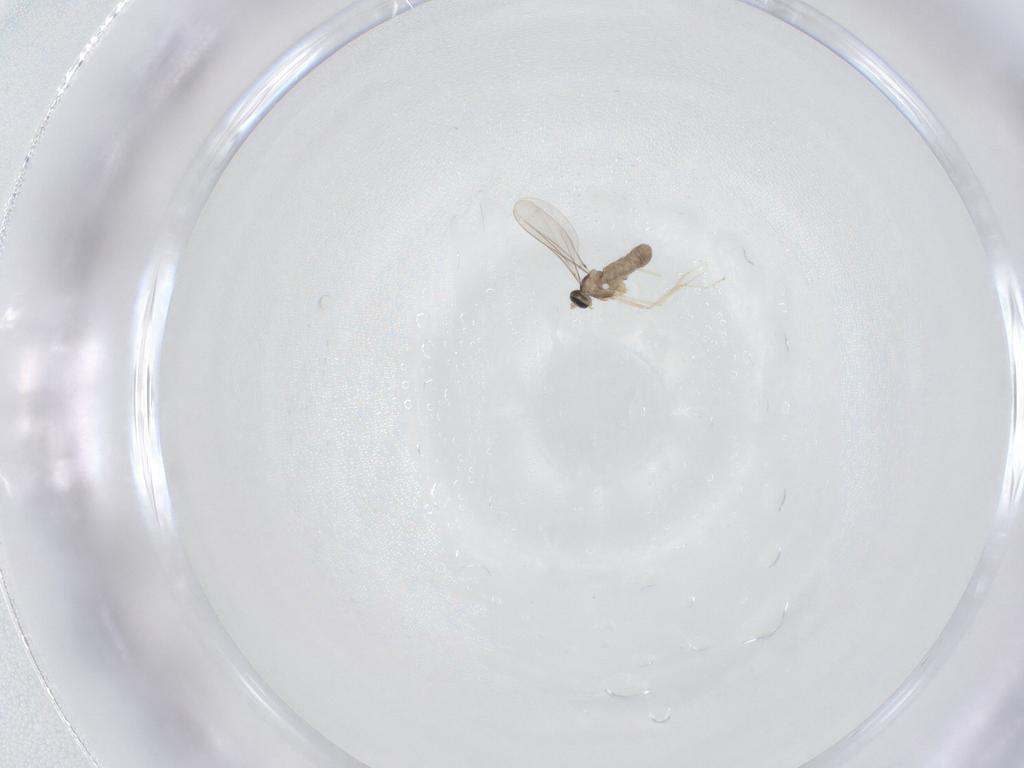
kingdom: Animalia
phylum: Arthropoda
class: Insecta
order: Diptera
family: Cecidomyiidae
